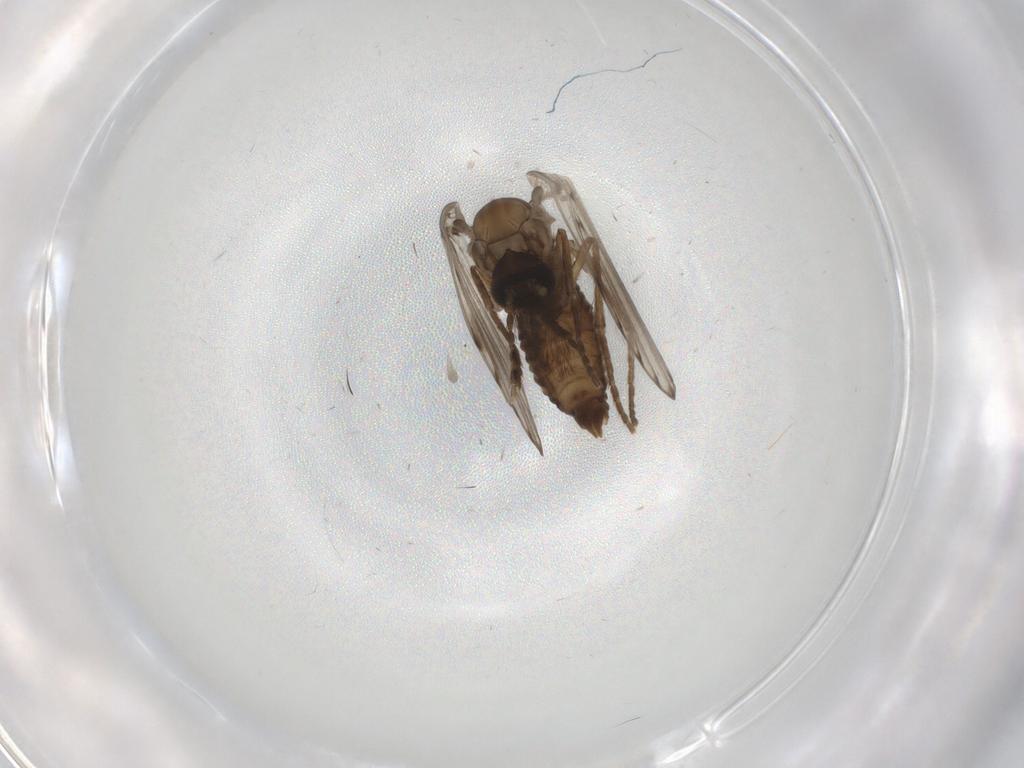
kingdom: Animalia
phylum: Arthropoda
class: Insecta
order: Diptera
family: Psychodidae
